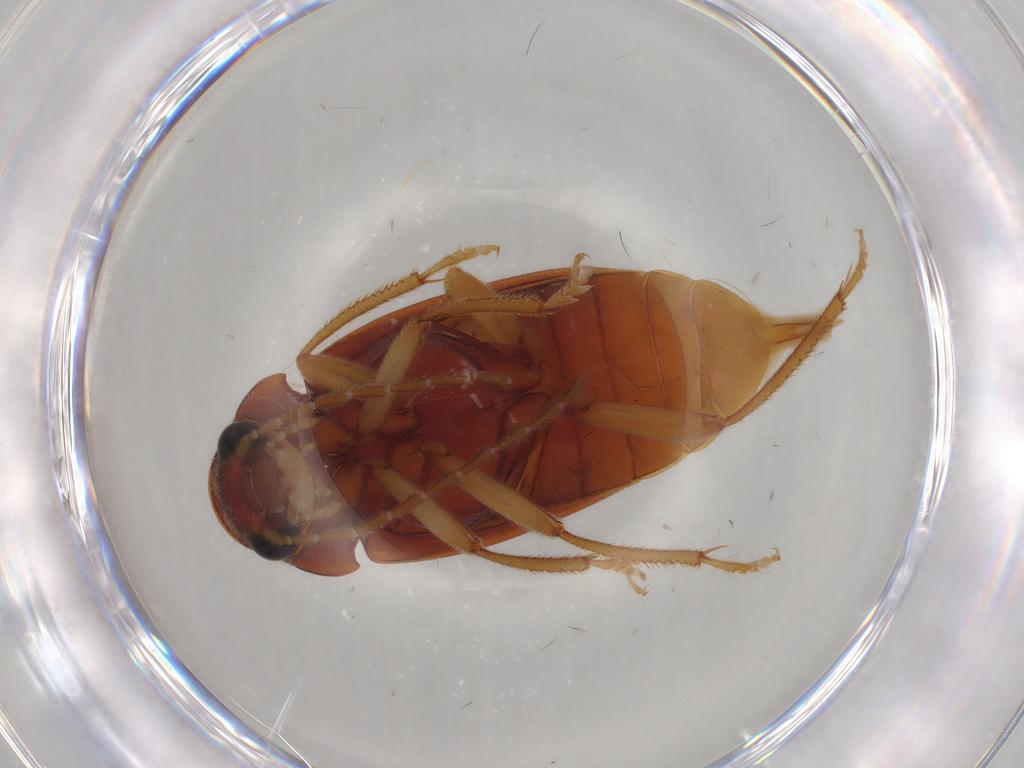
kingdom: Animalia
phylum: Arthropoda
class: Insecta
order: Coleoptera
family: Ptilodactylidae
